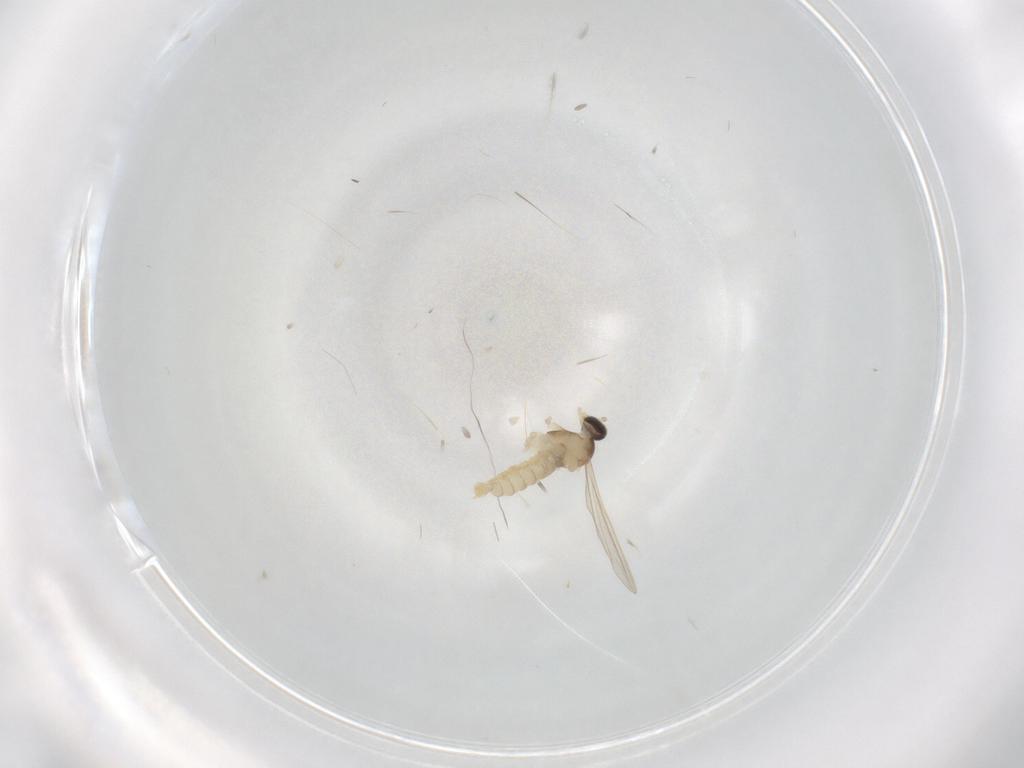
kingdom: Animalia
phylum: Arthropoda
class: Insecta
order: Diptera
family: Cecidomyiidae
